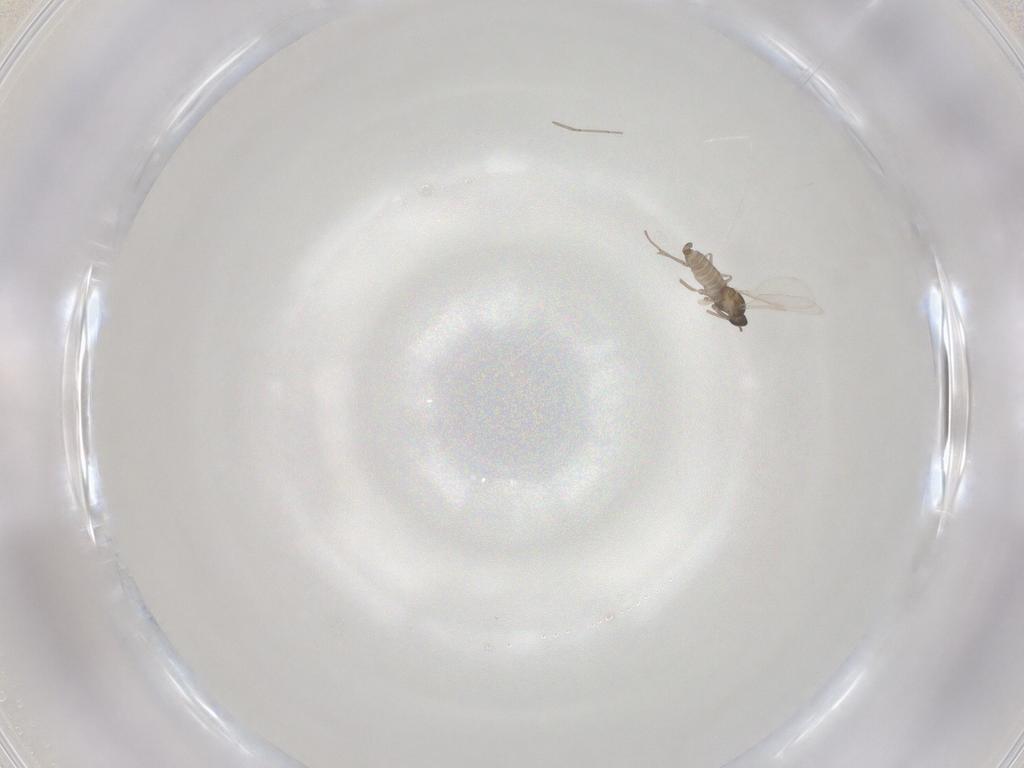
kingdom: Animalia
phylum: Arthropoda
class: Insecta
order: Diptera
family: Cecidomyiidae
